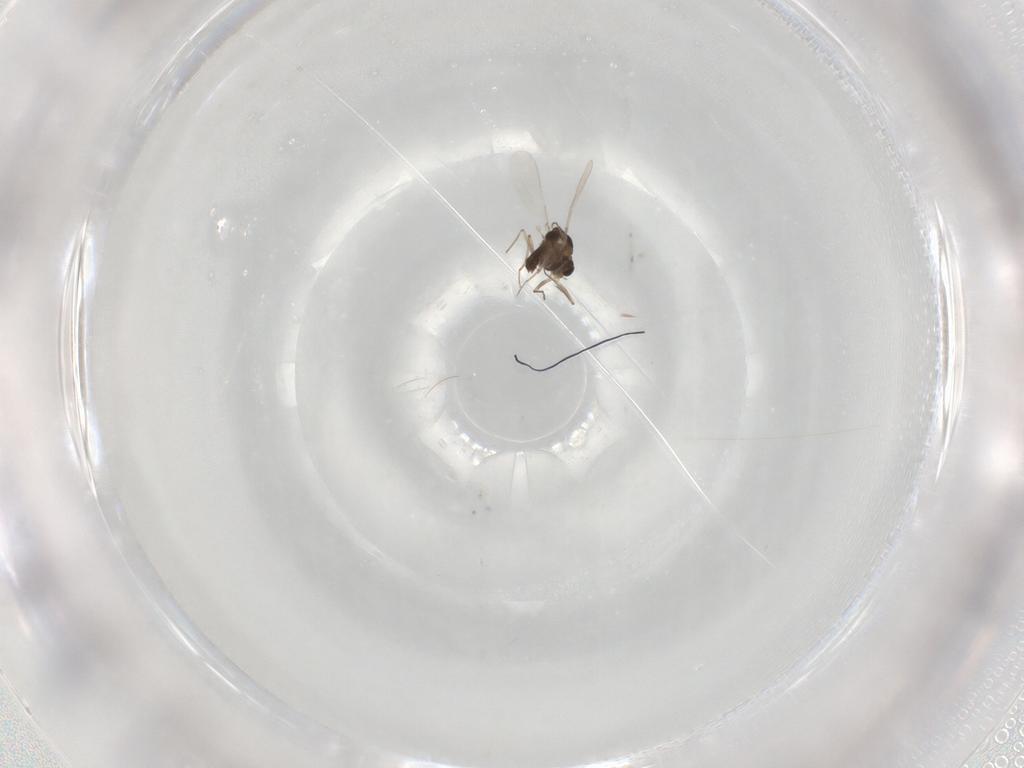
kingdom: Animalia
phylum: Arthropoda
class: Insecta
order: Diptera
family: Chironomidae
